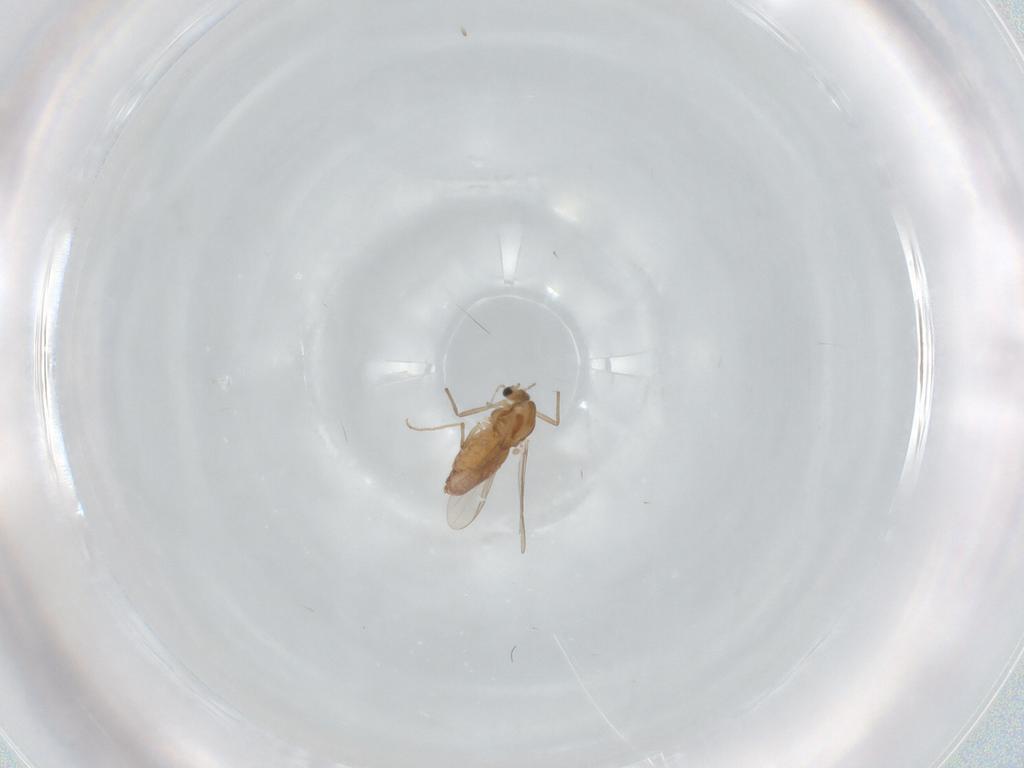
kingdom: Animalia
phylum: Arthropoda
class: Insecta
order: Diptera
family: Chironomidae
